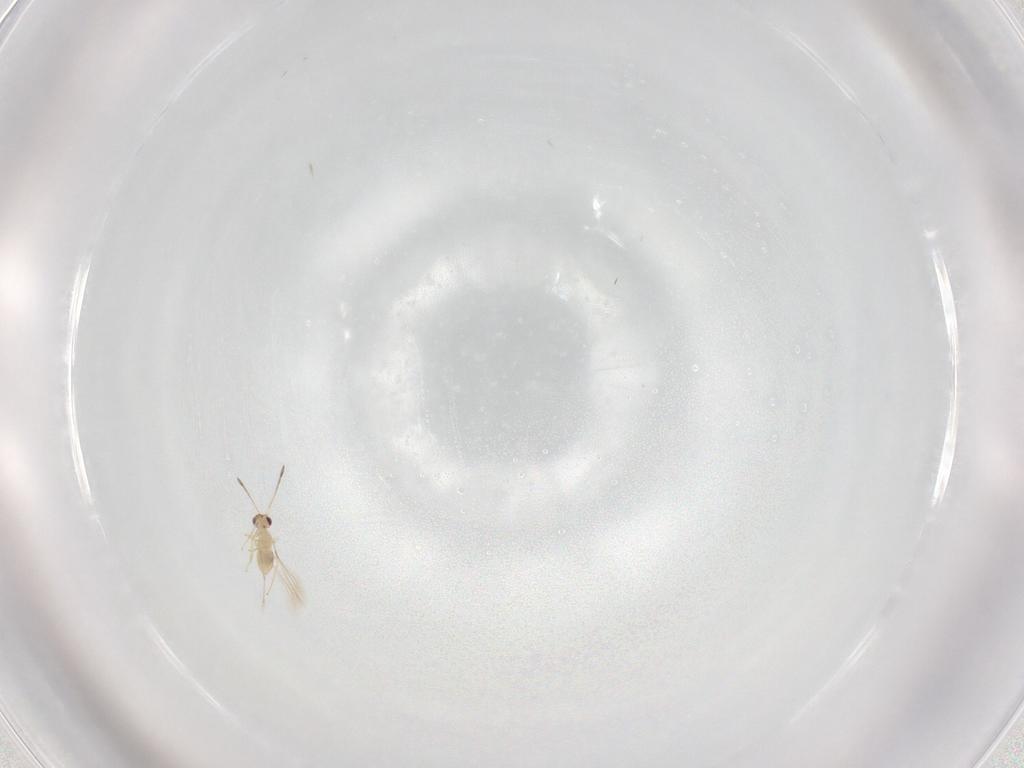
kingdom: Animalia
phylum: Arthropoda
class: Insecta
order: Hymenoptera
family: Mymaridae
